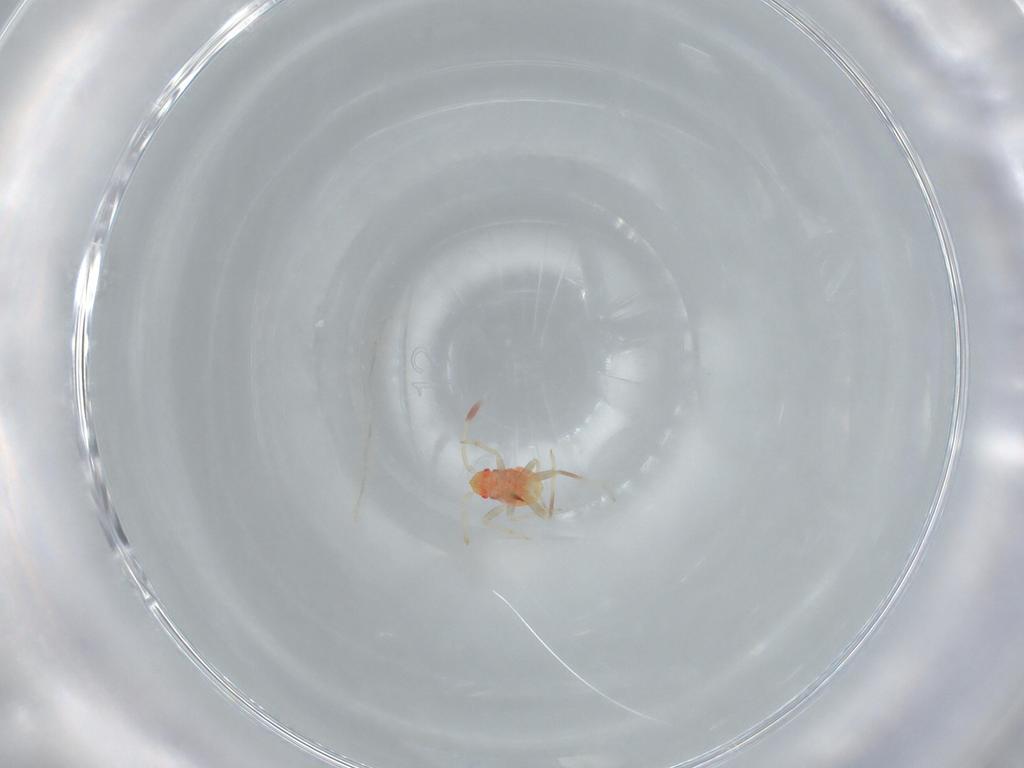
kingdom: Animalia
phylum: Arthropoda
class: Insecta
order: Hemiptera
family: Miridae
